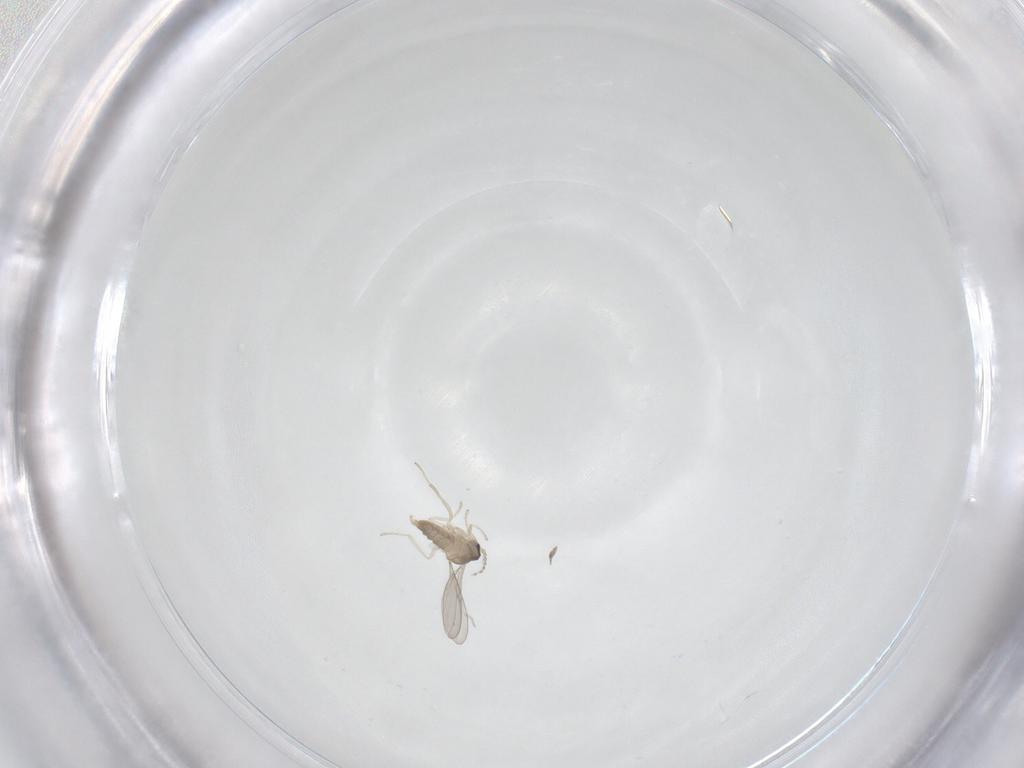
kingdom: Animalia
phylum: Arthropoda
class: Insecta
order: Diptera
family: Cecidomyiidae
